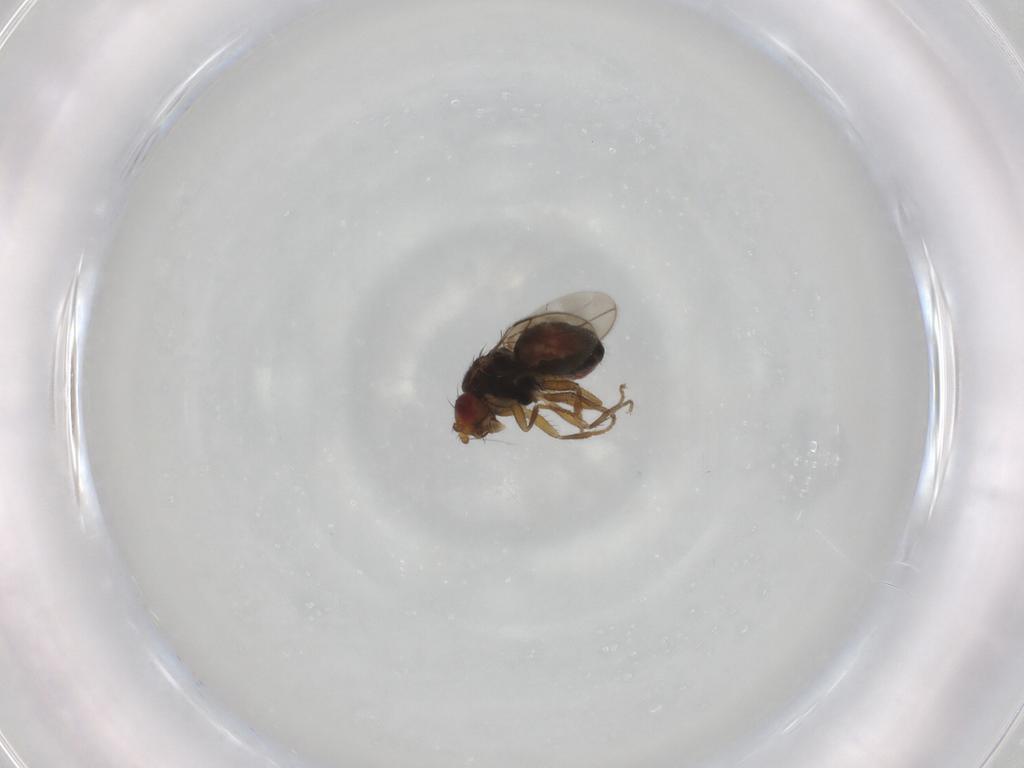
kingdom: Animalia
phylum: Arthropoda
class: Insecta
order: Diptera
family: Sphaeroceridae
